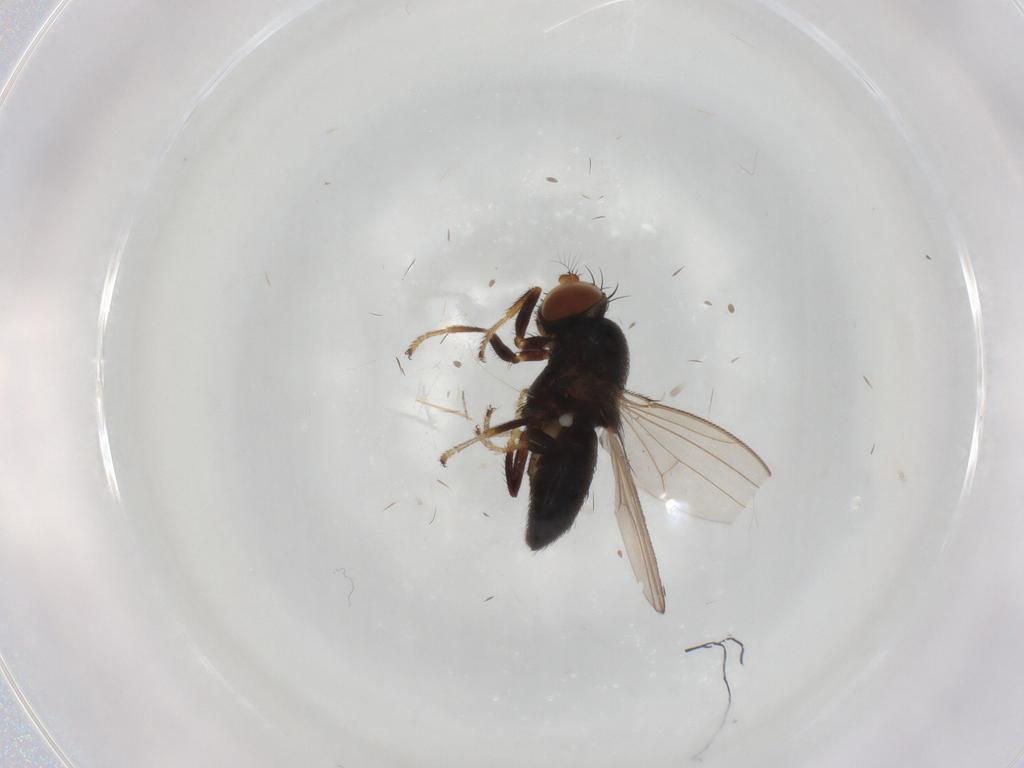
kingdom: Animalia
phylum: Arthropoda
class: Insecta
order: Diptera
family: Ephydridae
